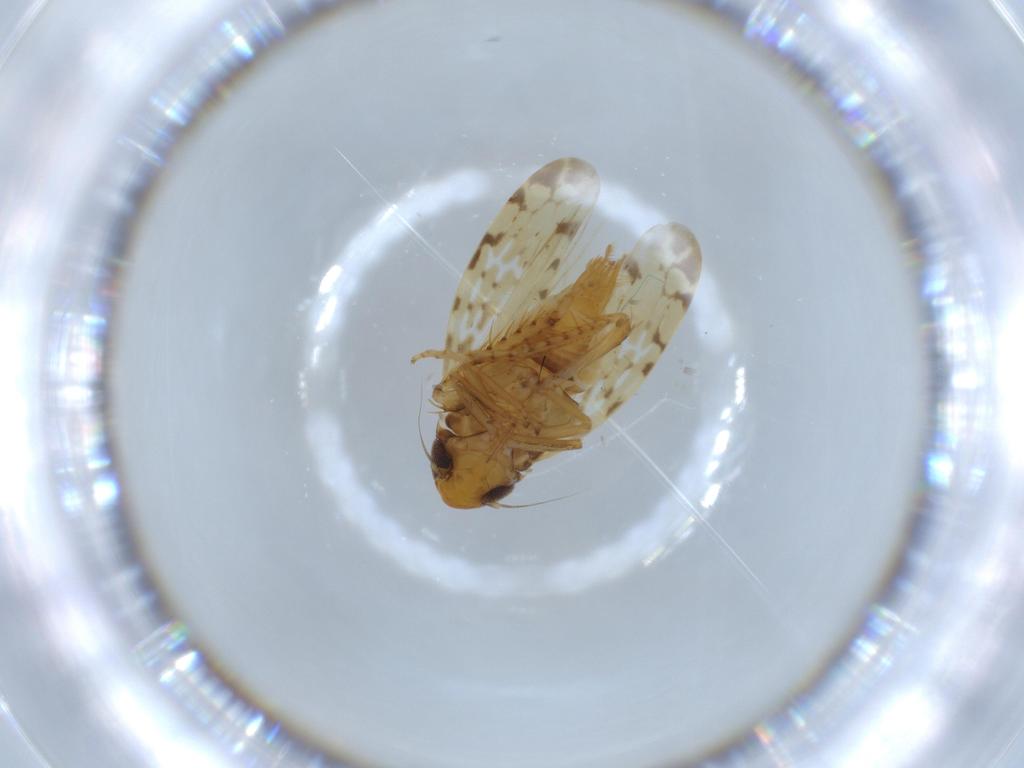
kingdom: Animalia
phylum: Arthropoda
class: Insecta
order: Hemiptera
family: Cicadellidae
